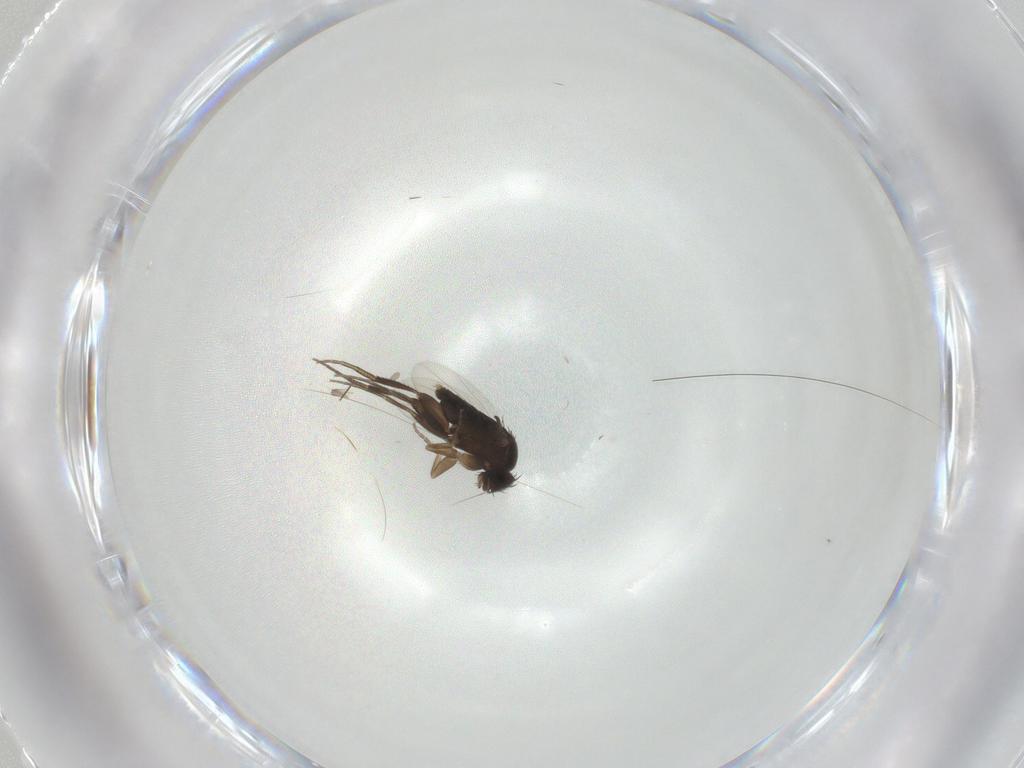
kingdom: Animalia
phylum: Arthropoda
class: Insecta
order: Hymenoptera
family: Bethylidae
